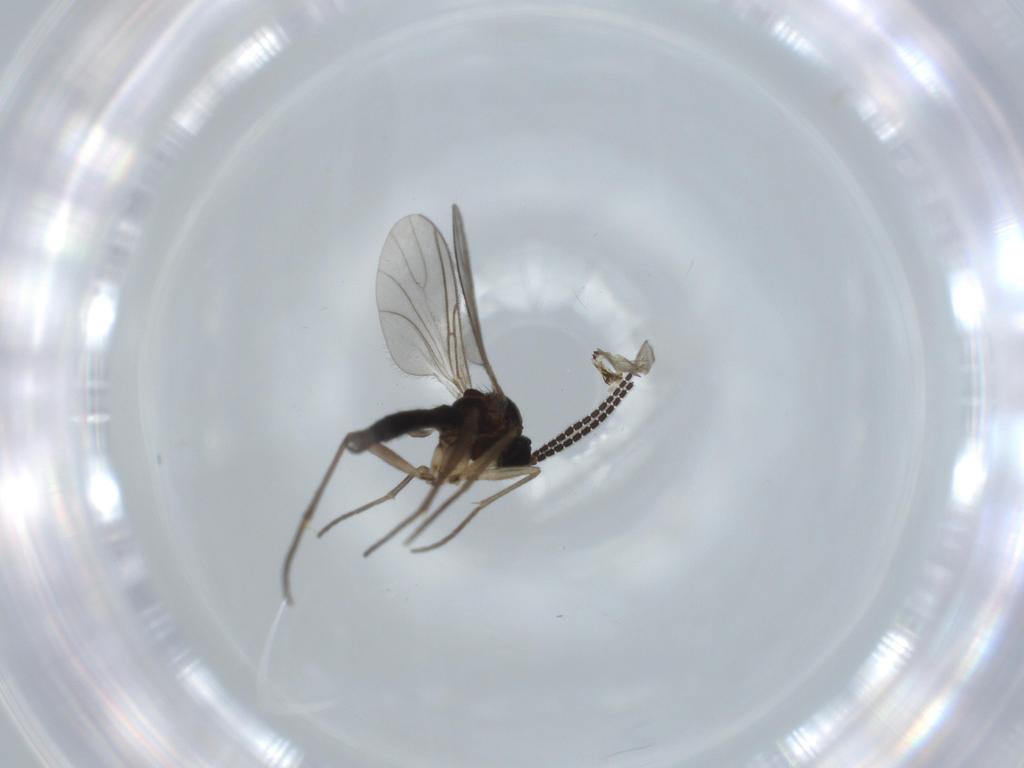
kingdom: Animalia
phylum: Arthropoda
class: Insecta
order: Diptera
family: Sciaridae
